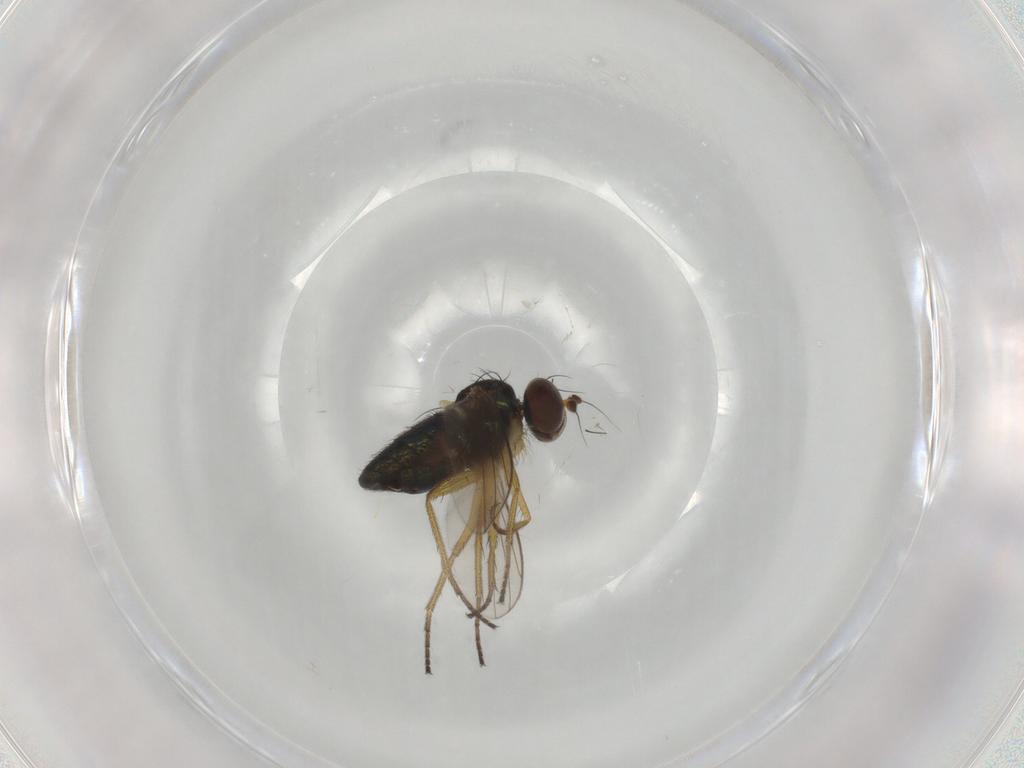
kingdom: Animalia
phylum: Arthropoda
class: Insecta
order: Diptera
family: Dolichopodidae
